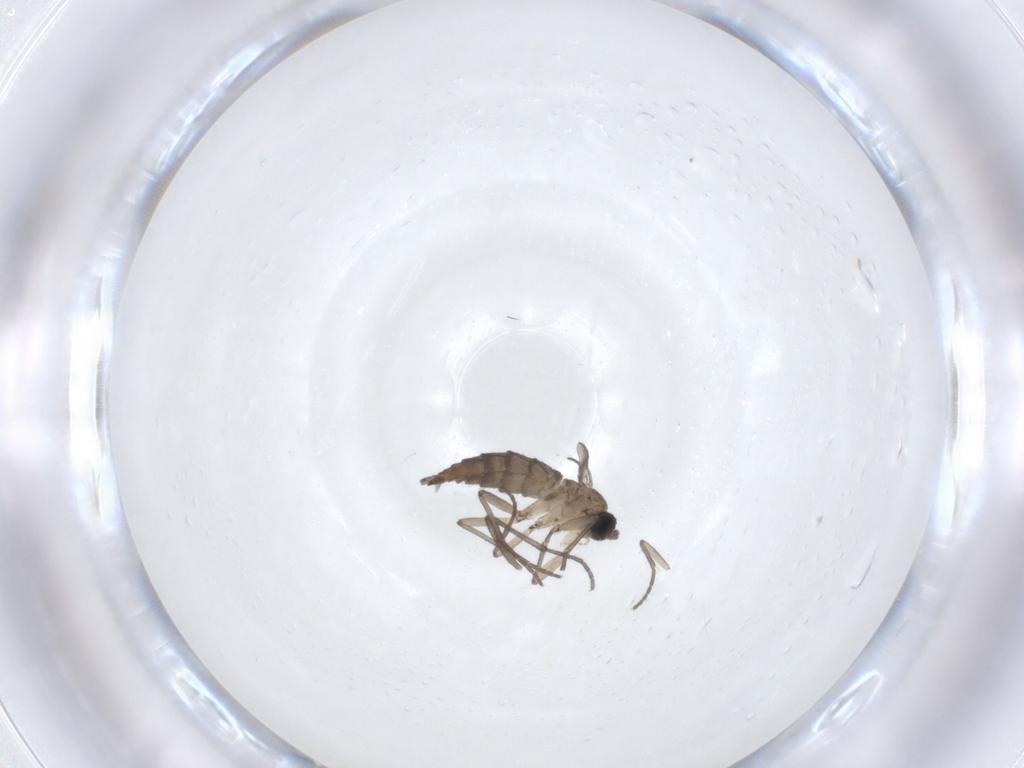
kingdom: Animalia
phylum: Arthropoda
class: Insecta
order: Diptera
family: Sciaridae
